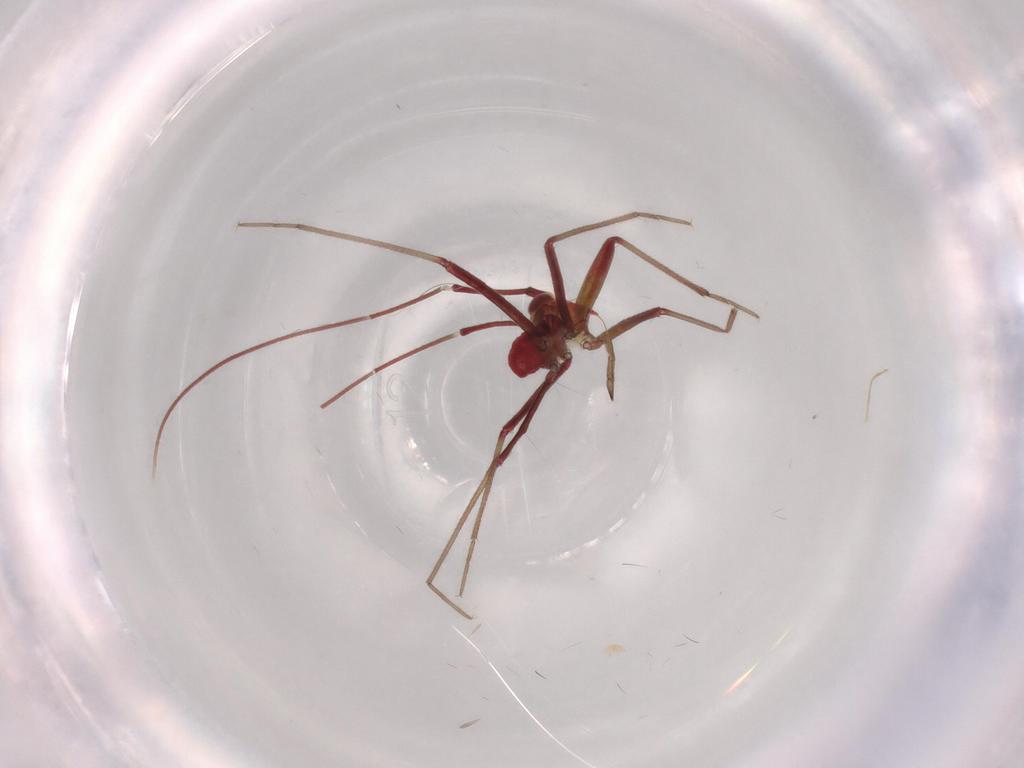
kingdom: Animalia
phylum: Arthropoda
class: Insecta
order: Hemiptera
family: Miridae
